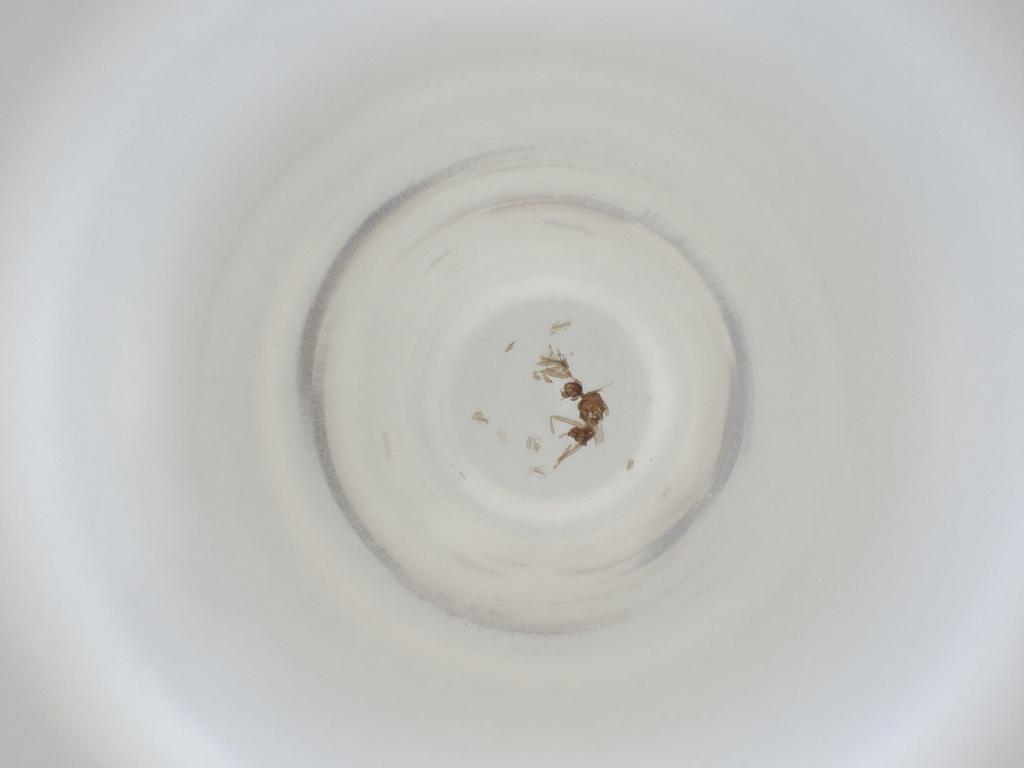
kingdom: Animalia
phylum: Arthropoda
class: Insecta
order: Diptera
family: Cecidomyiidae
